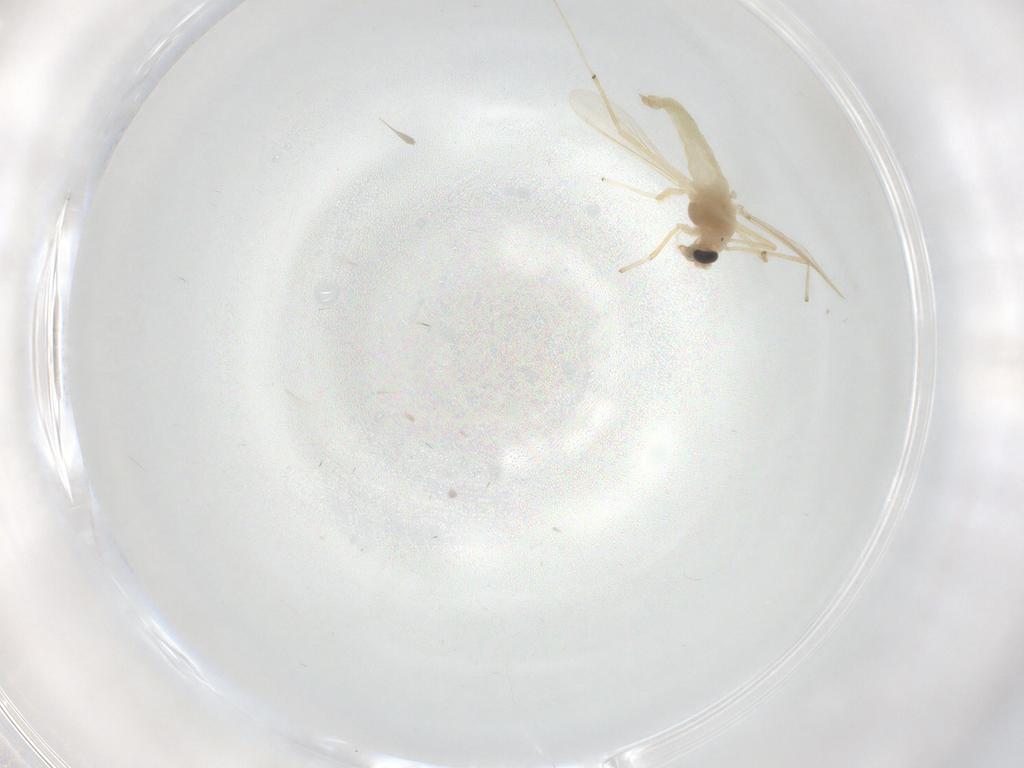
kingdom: Animalia
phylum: Arthropoda
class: Insecta
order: Diptera
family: Chironomidae
